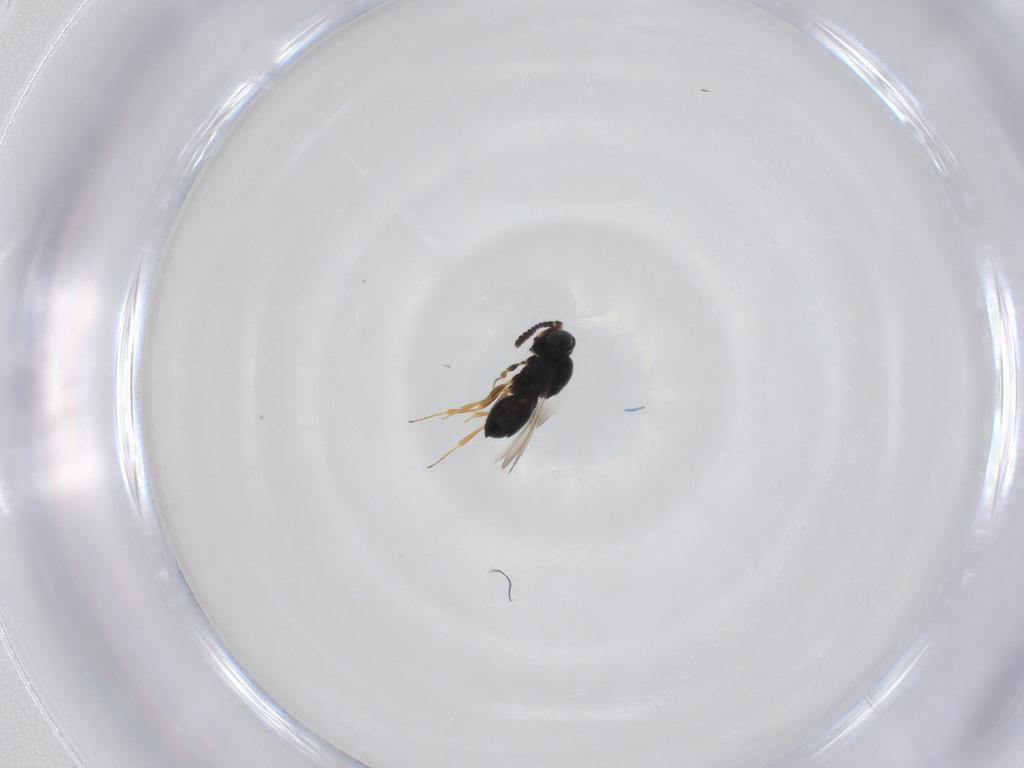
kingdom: Animalia
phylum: Arthropoda
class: Insecta
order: Hymenoptera
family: Scelionidae
